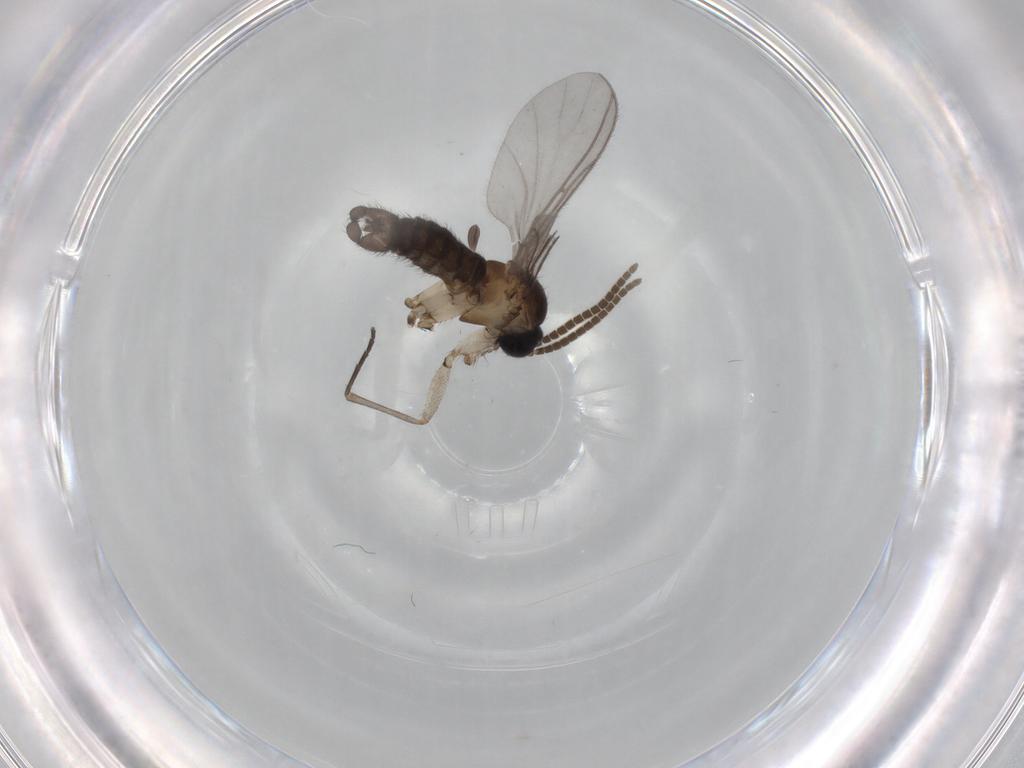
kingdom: Animalia
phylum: Arthropoda
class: Insecta
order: Diptera
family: Sciaridae
